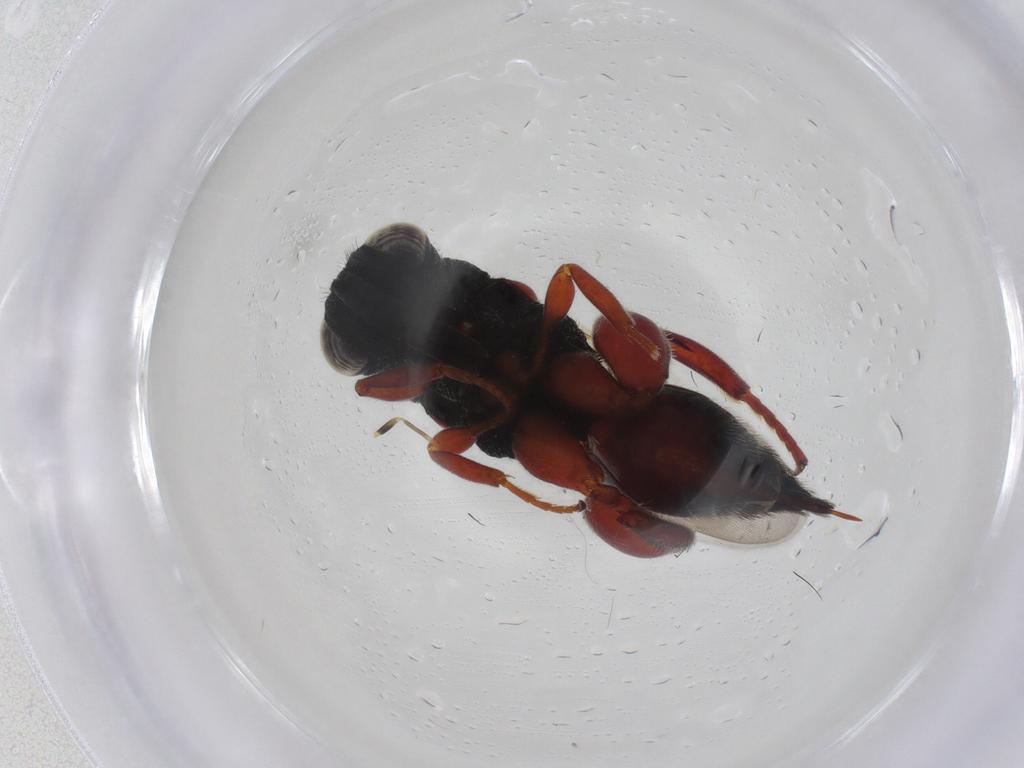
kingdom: Animalia
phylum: Arthropoda
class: Insecta
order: Hymenoptera
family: Pompilidae
